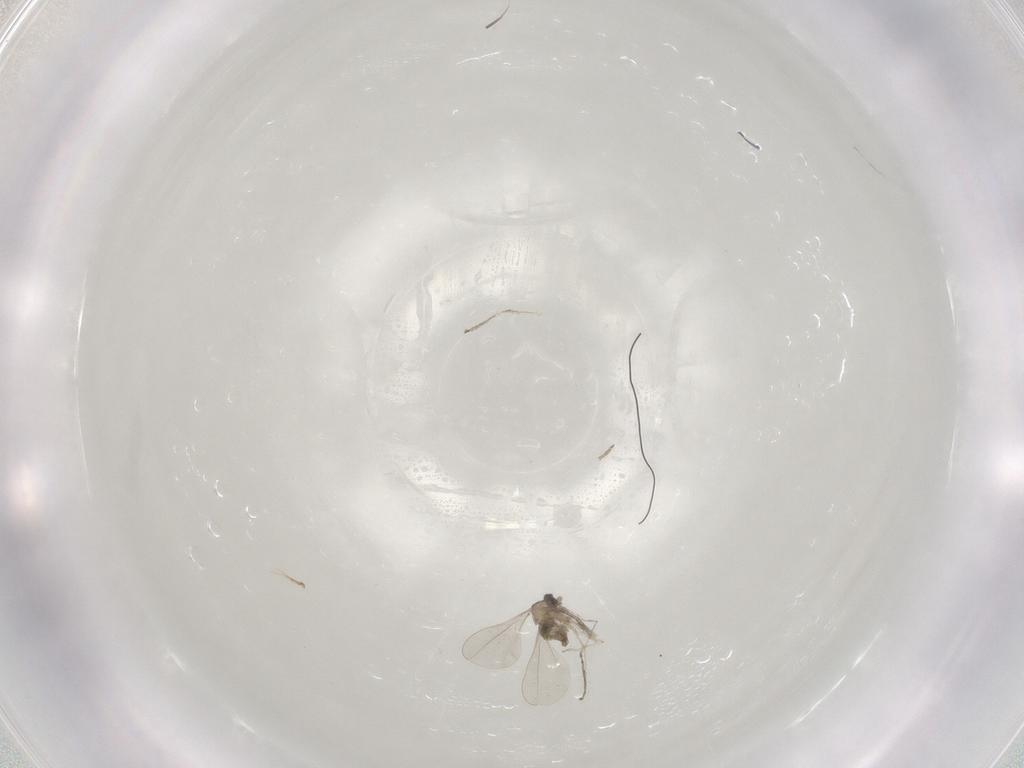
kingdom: Animalia
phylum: Arthropoda
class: Insecta
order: Diptera
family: Cecidomyiidae
